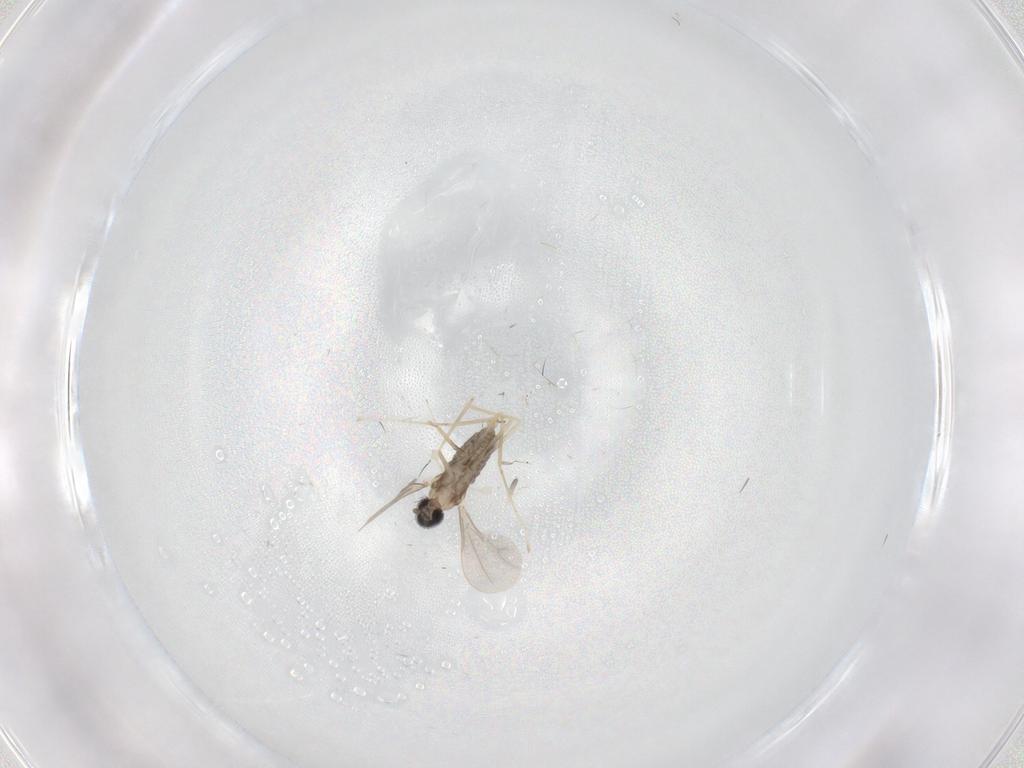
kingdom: Animalia
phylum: Arthropoda
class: Insecta
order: Diptera
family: Cecidomyiidae
